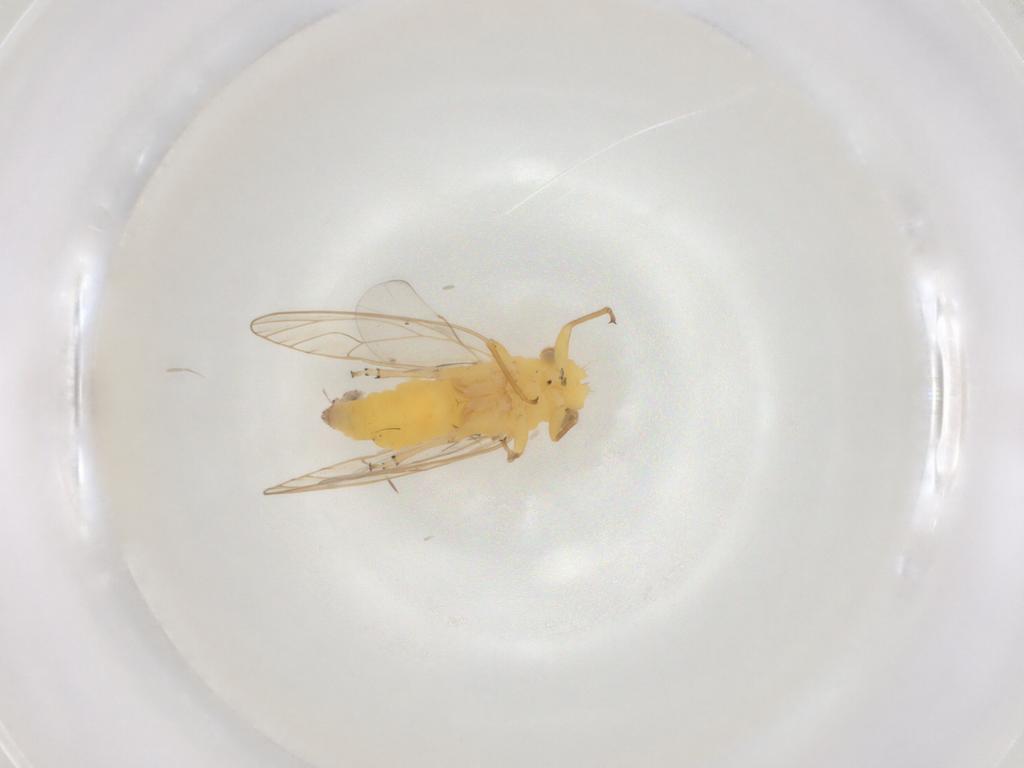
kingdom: Animalia
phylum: Arthropoda
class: Insecta
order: Hemiptera
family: Psyllidae
